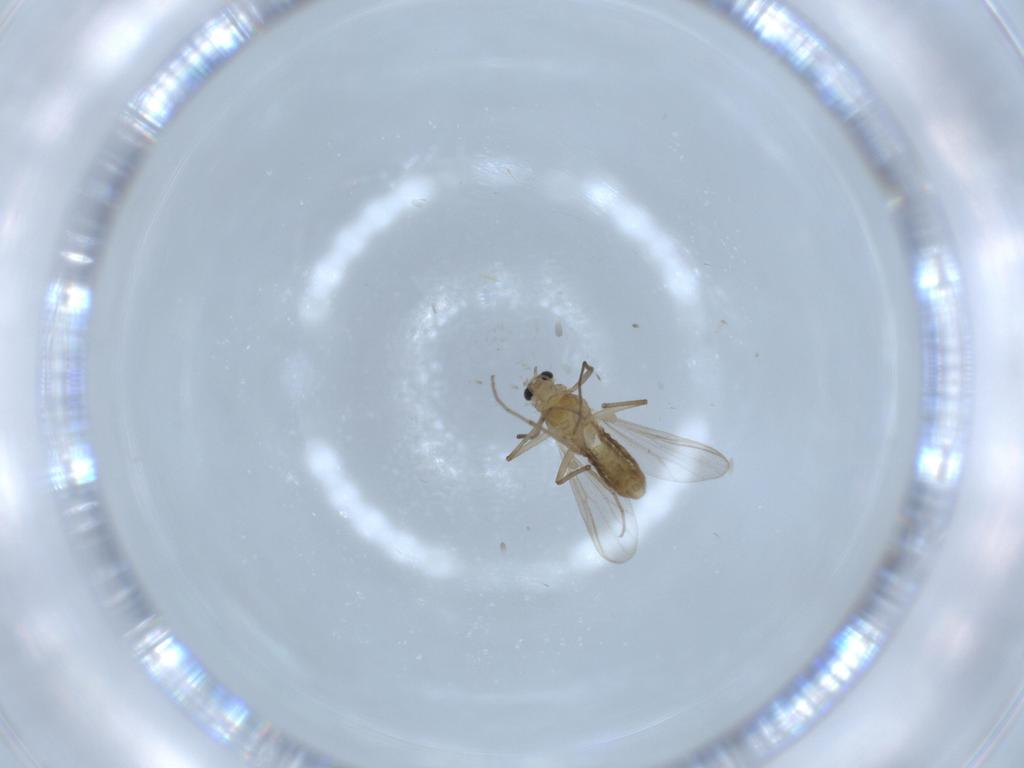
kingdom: Animalia
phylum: Arthropoda
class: Insecta
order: Diptera
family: Chironomidae
